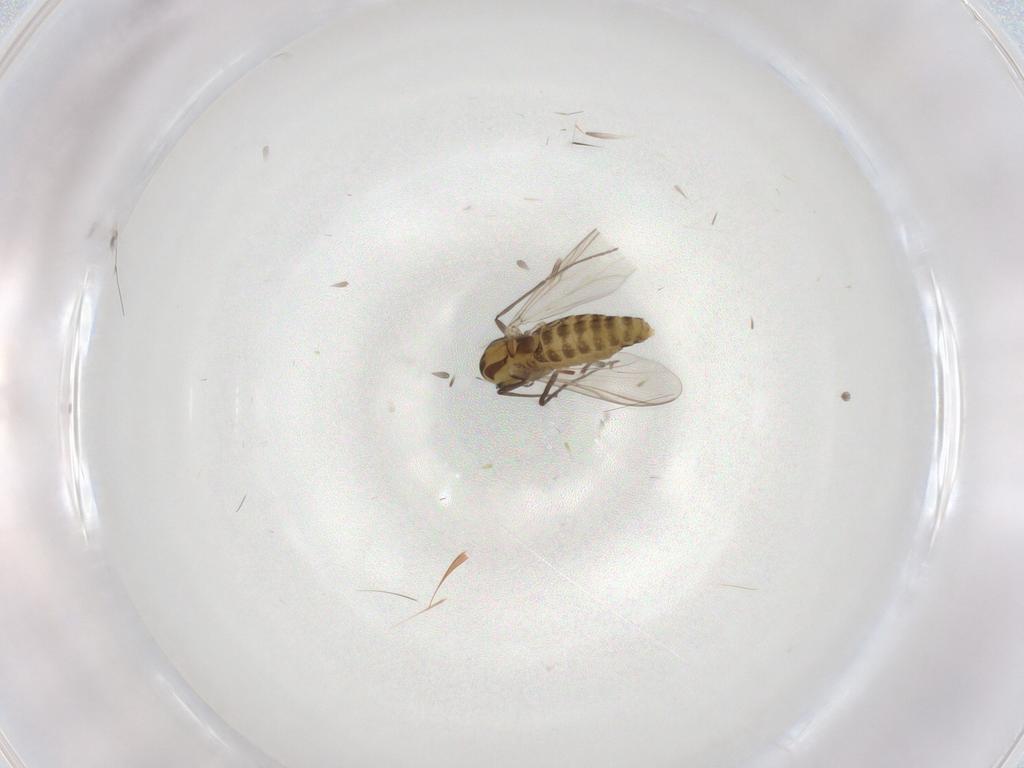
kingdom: Animalia
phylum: Arthropoda
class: Insecta
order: Diptera
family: Chironomidae
